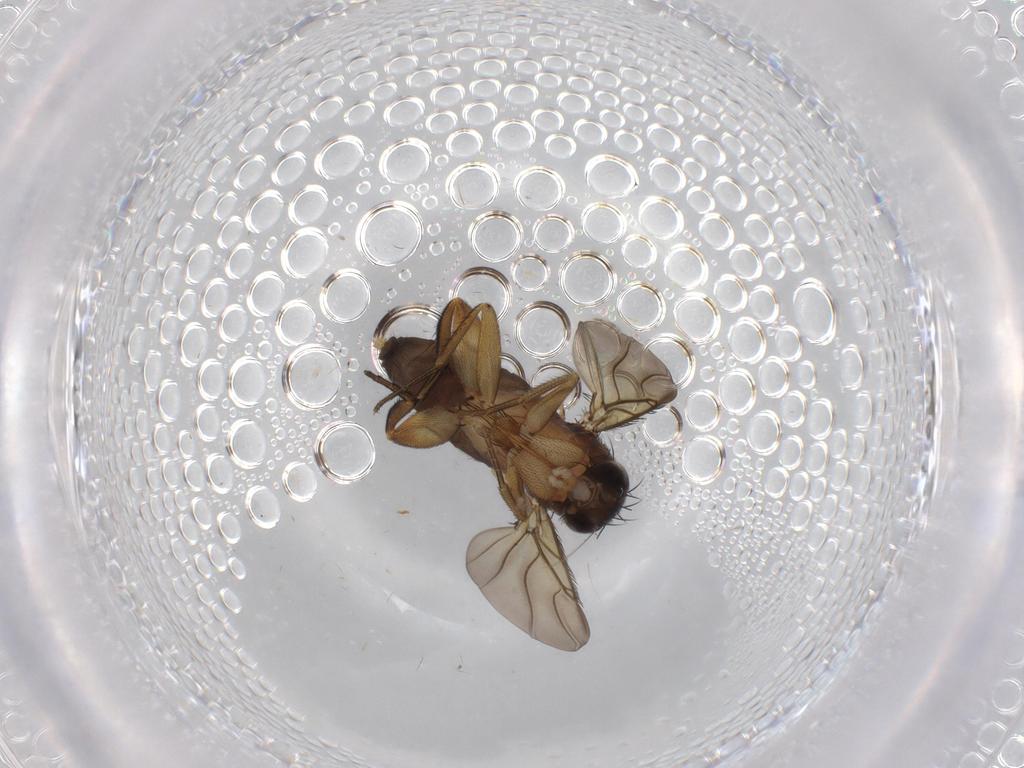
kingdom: Animalia
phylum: Arthropoda
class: Insecta
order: Diptera
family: Phoridae
